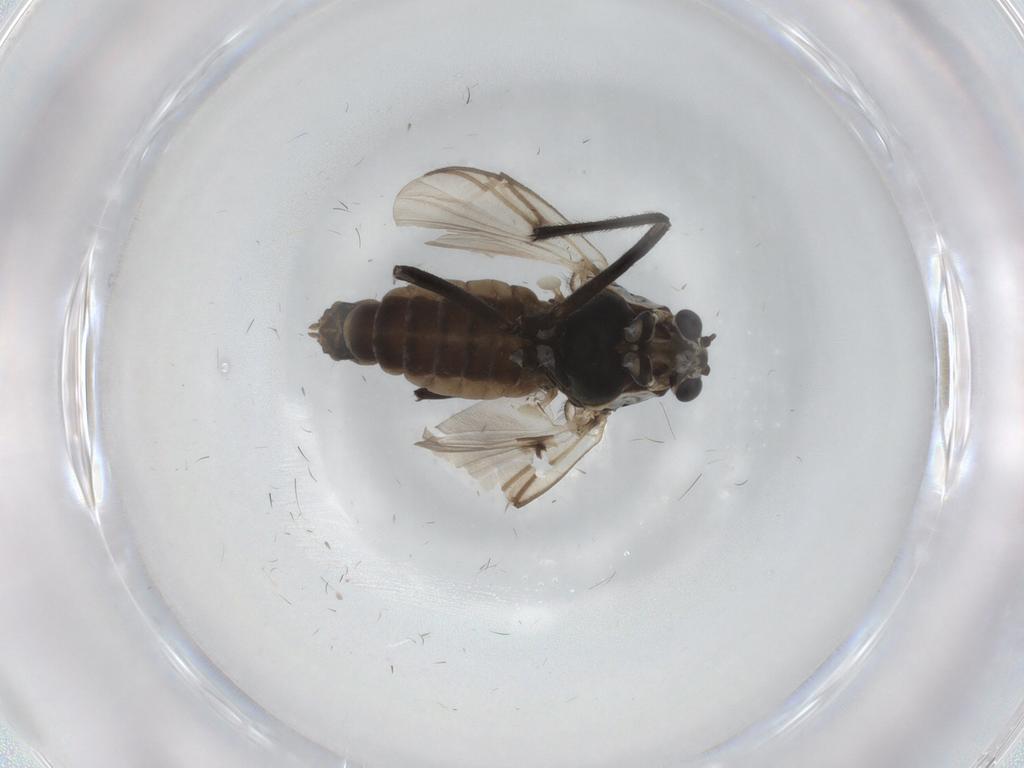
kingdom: Animalia
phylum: Arthropoda
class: Insecta
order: Diptera
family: Chironomidae
